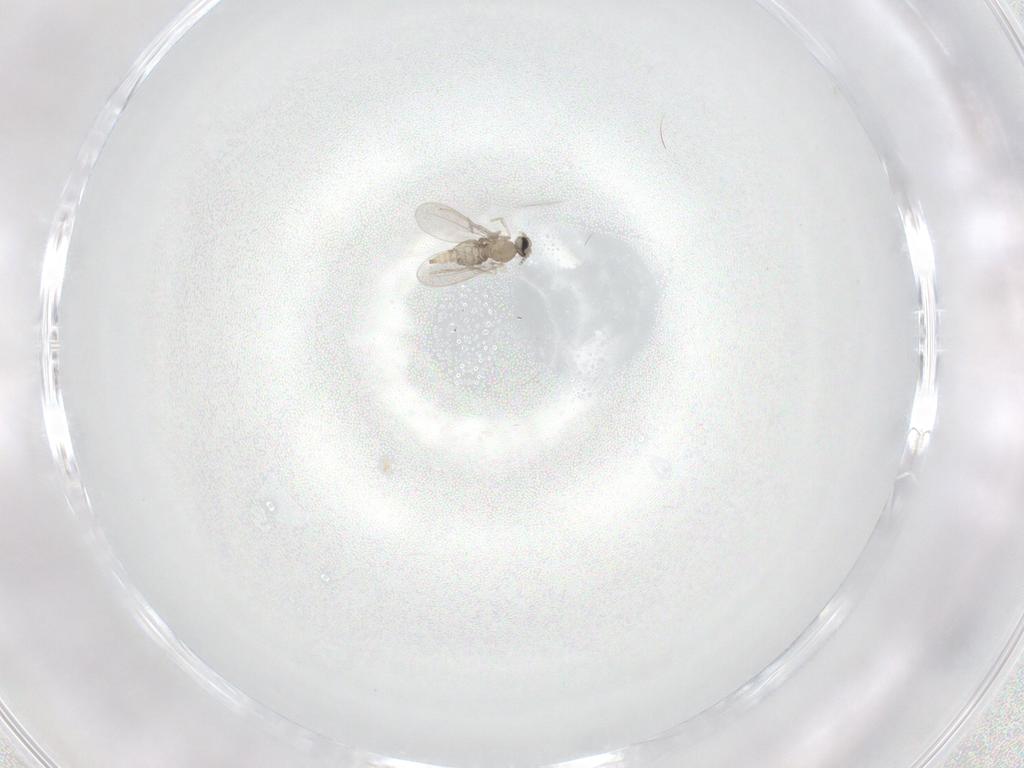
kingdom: Animalia
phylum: Arthropoda
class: Insecta
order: Diptera
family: Cecidomyiidae
